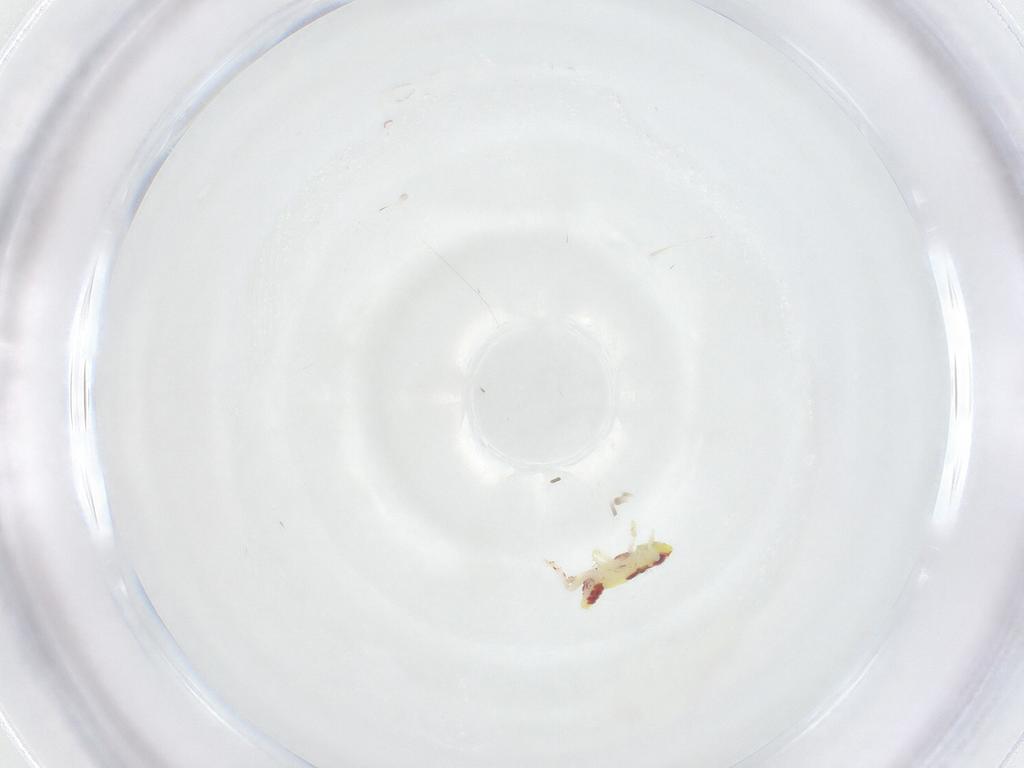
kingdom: Animalia
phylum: Arthropoda
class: Insecta
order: Hemiptera
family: Tropiduchidae
